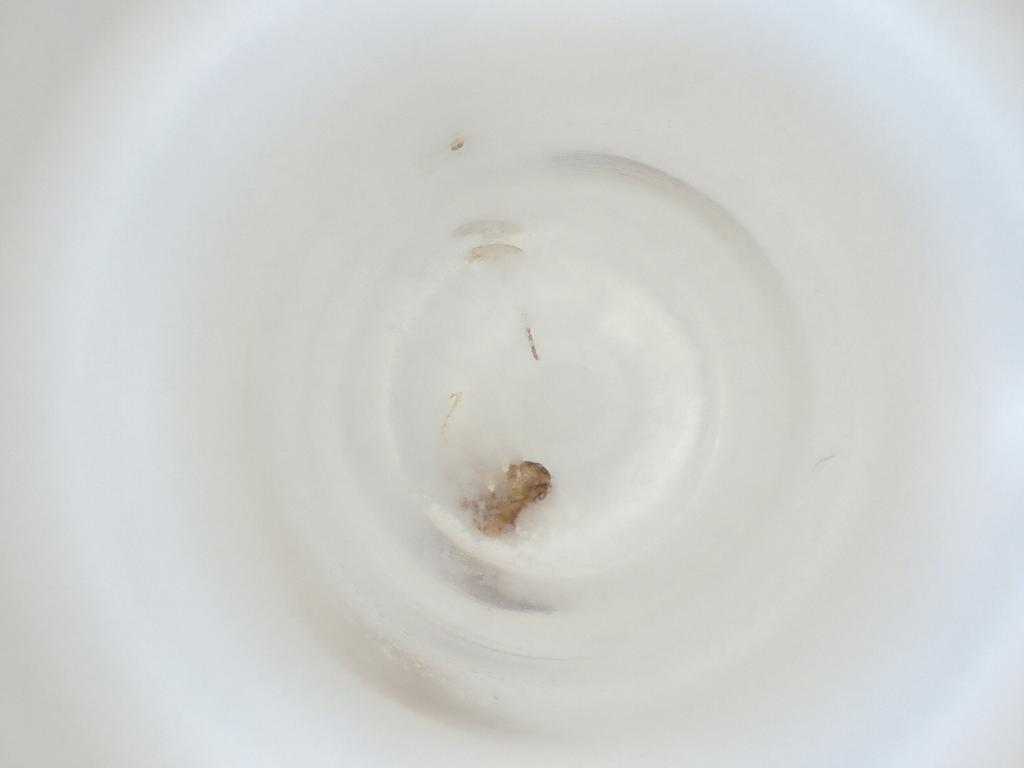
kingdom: Animalia
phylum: Arthropoda
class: Insecta
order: Diptera
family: Cecidomyiidae
